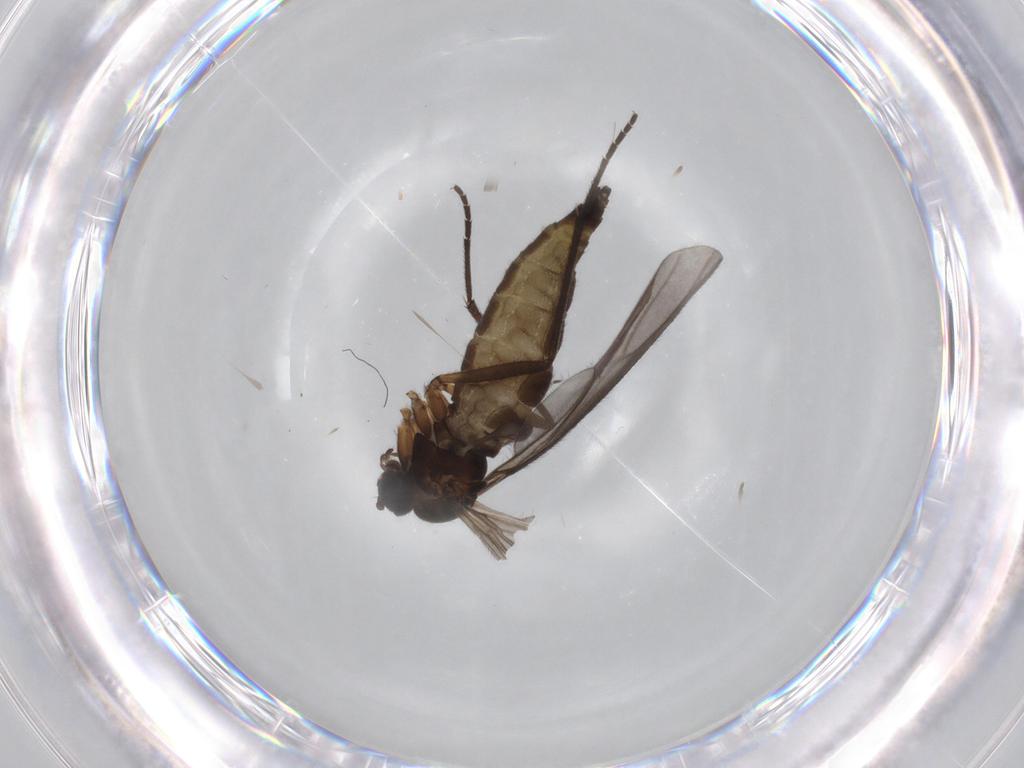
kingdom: Animalia
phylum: Arthropoda
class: Insecta
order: Diptera
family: Sciaridae
